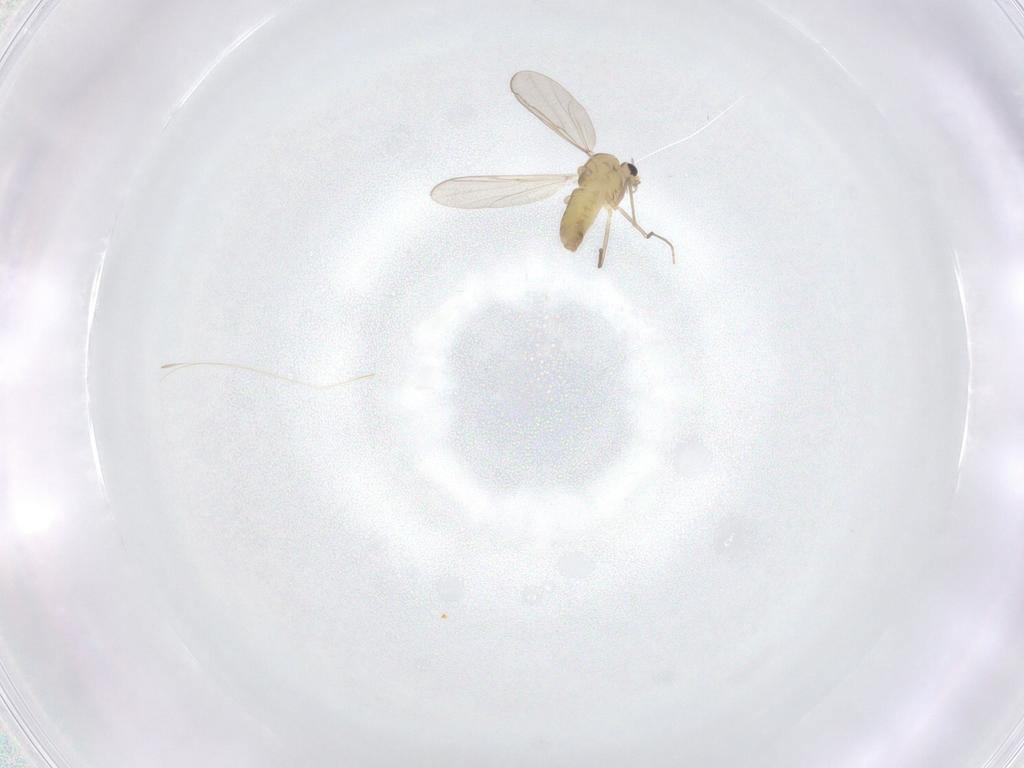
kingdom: Animalia
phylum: Arthropoda
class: Insecta
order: Diptera
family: Chironomidae
